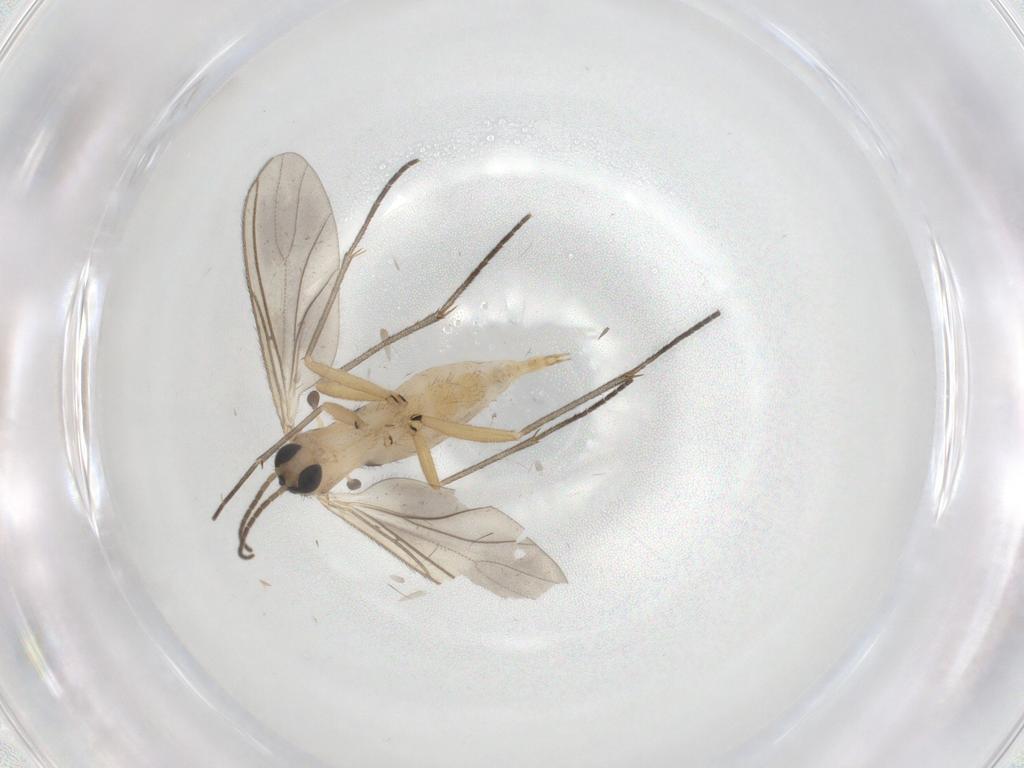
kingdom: Animalia
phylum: Arthropoda
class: Insecta
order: Diptera
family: Sciaridae
